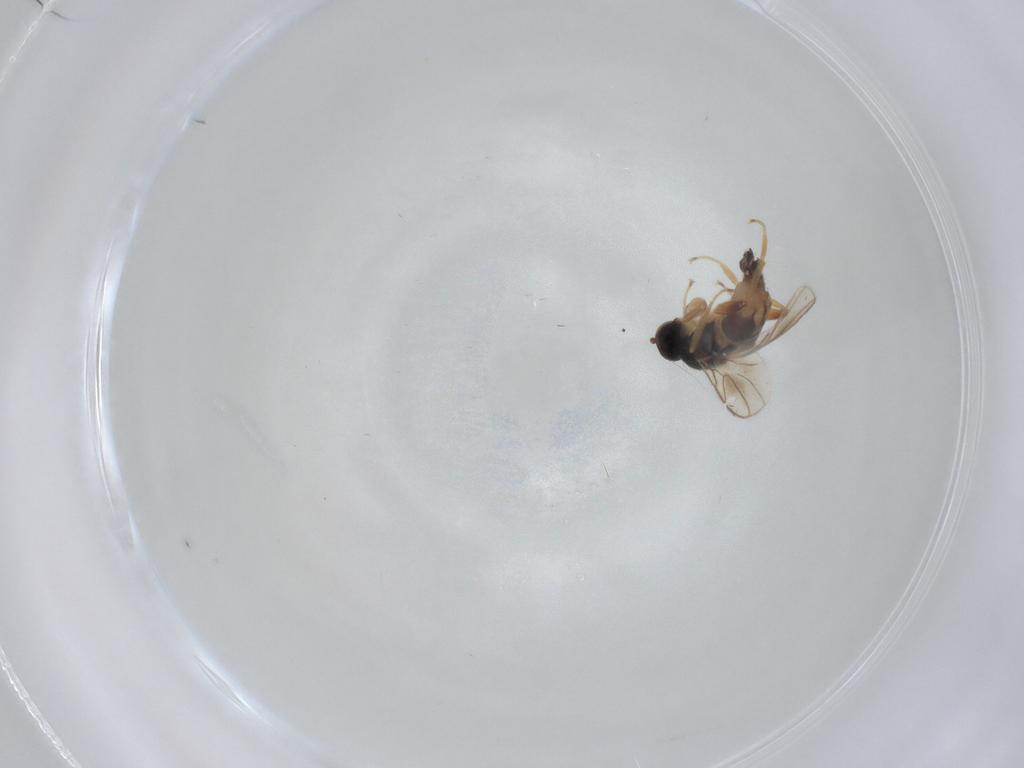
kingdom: Animalia
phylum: Arthropoda
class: Insecta
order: Diptera
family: Hybotidae
